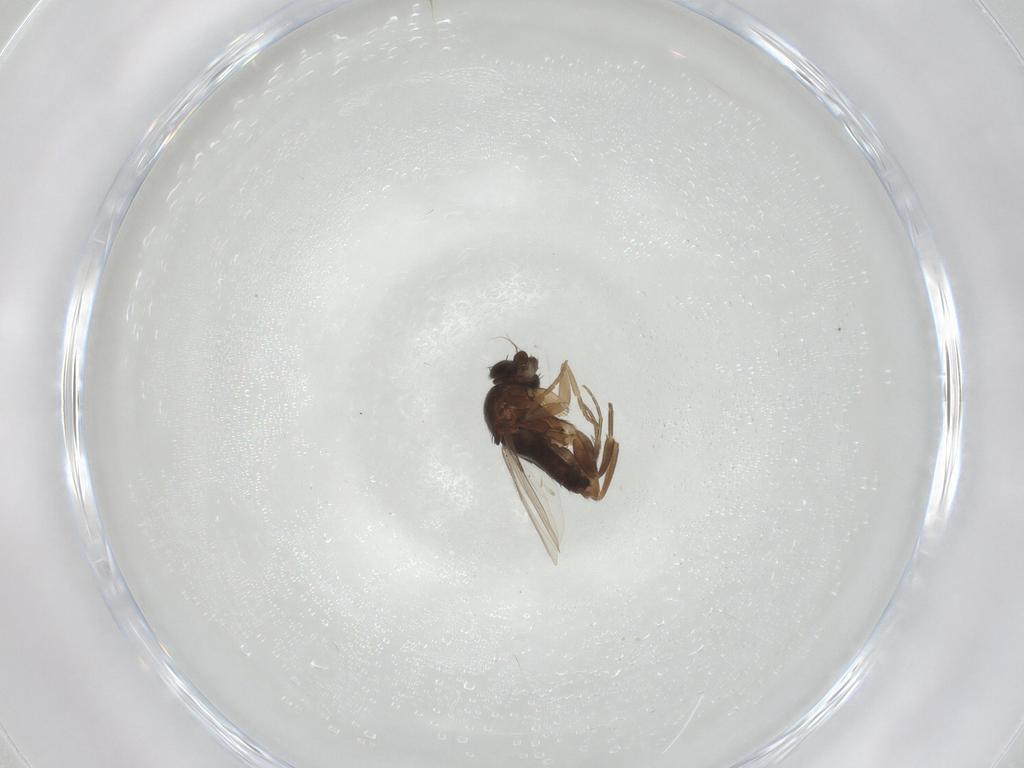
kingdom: Animalia
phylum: Arthropoda
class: Insecta
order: Diptera
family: Phoridae
